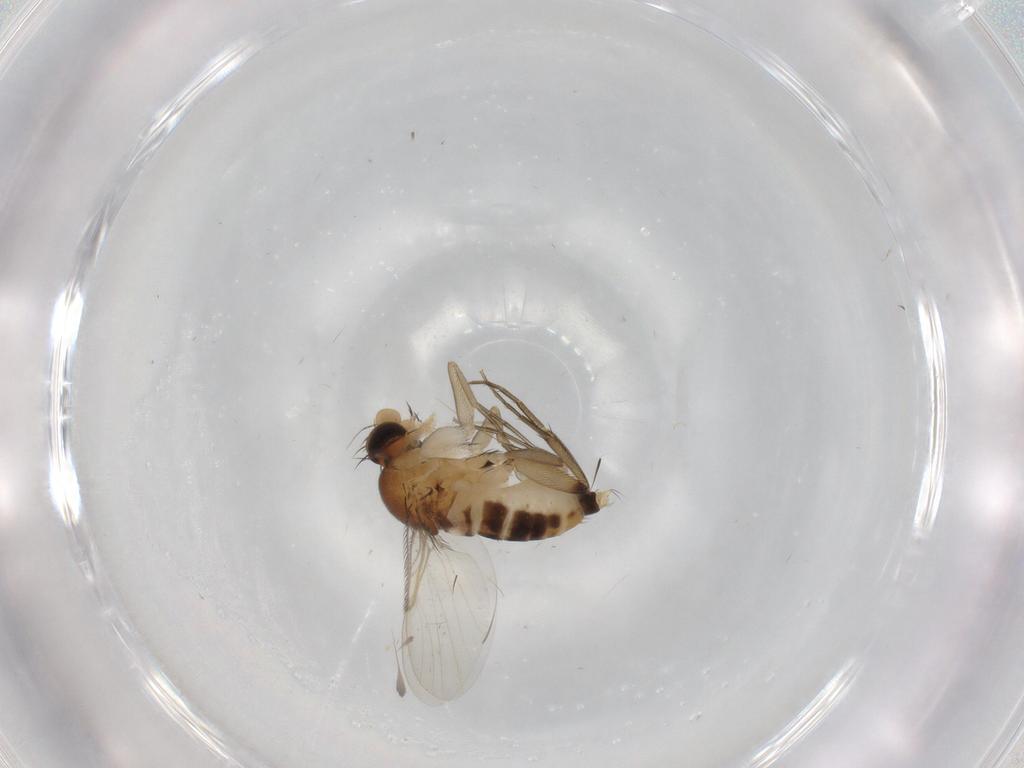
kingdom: Animalia
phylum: Arthropoda
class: Insecta
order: Diptera
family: Phoridae
